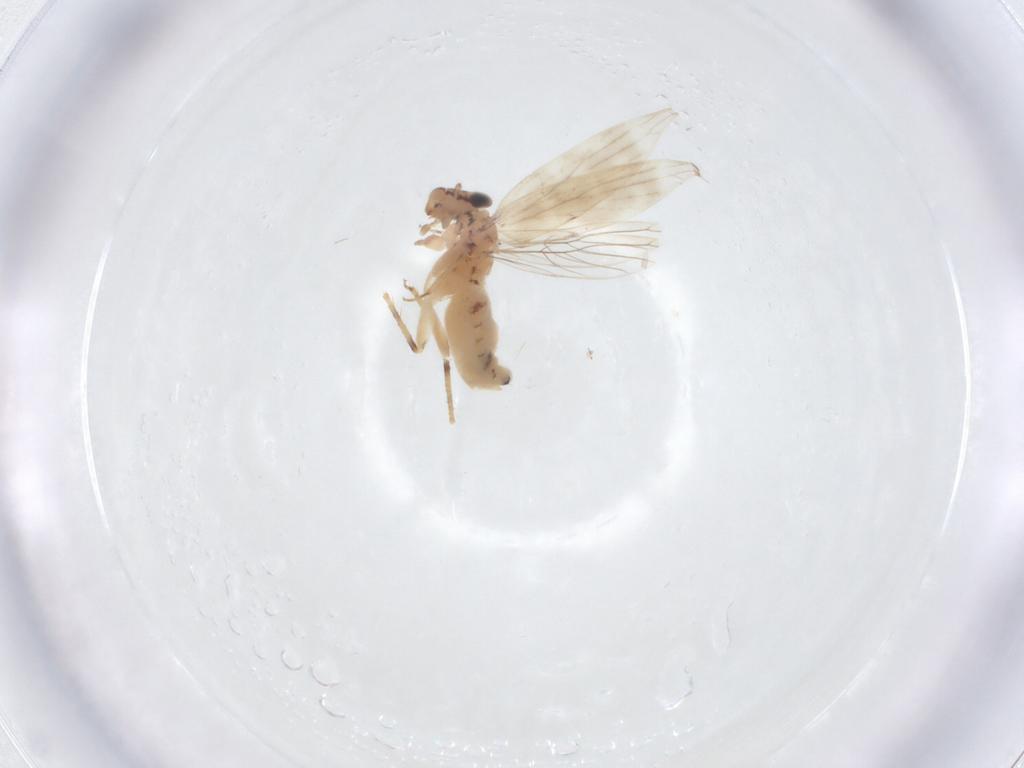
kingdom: Animalia
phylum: Arthropoda
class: Insecta
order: Psocodea
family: Lepidopsocidae
